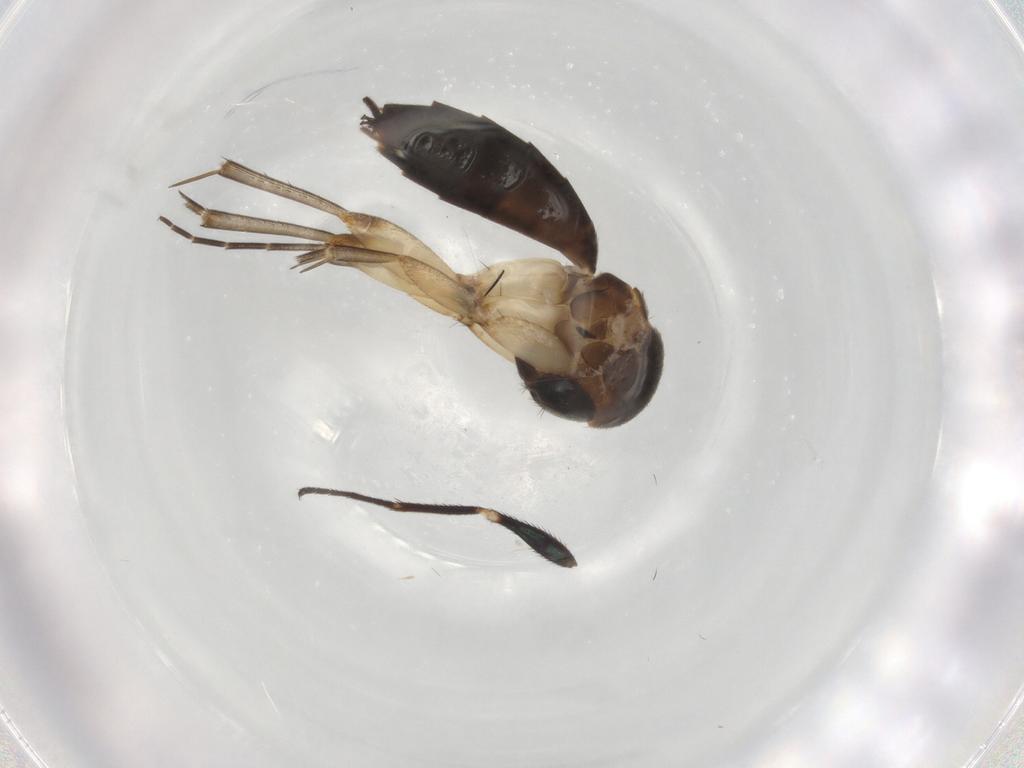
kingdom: Animalia
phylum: Arthropoda
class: Insecta
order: Diptera
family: Mycetophilidae
